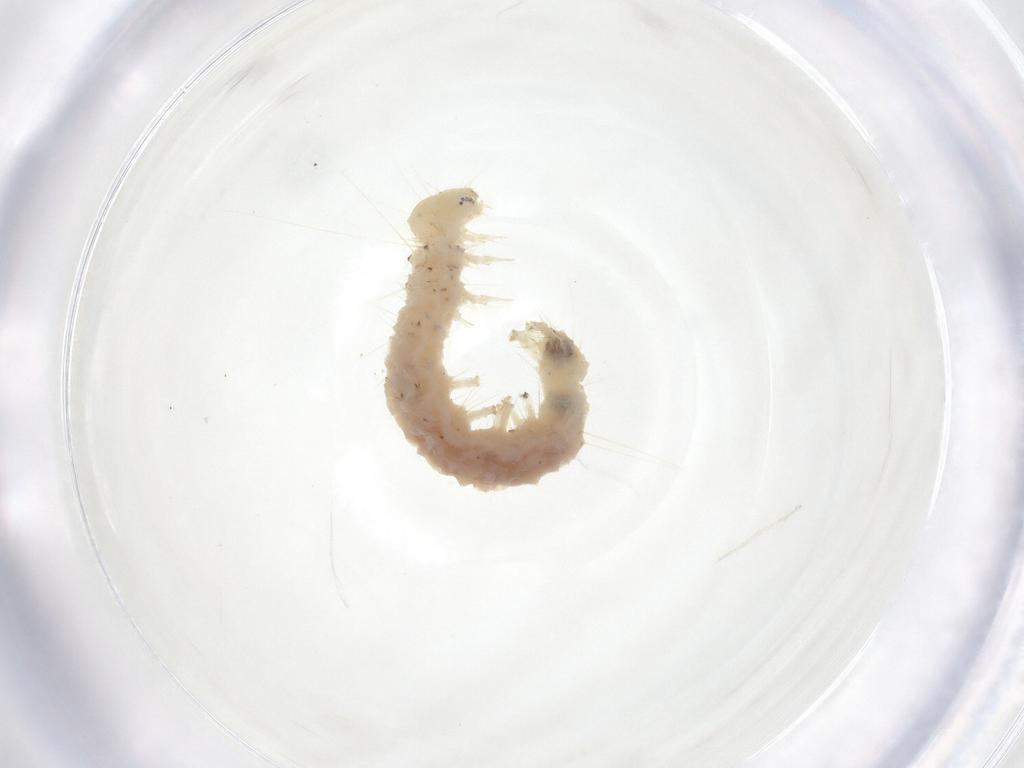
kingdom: Animalia
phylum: Arthropoda
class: Insecta
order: Lepidoptera
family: Crambidae
